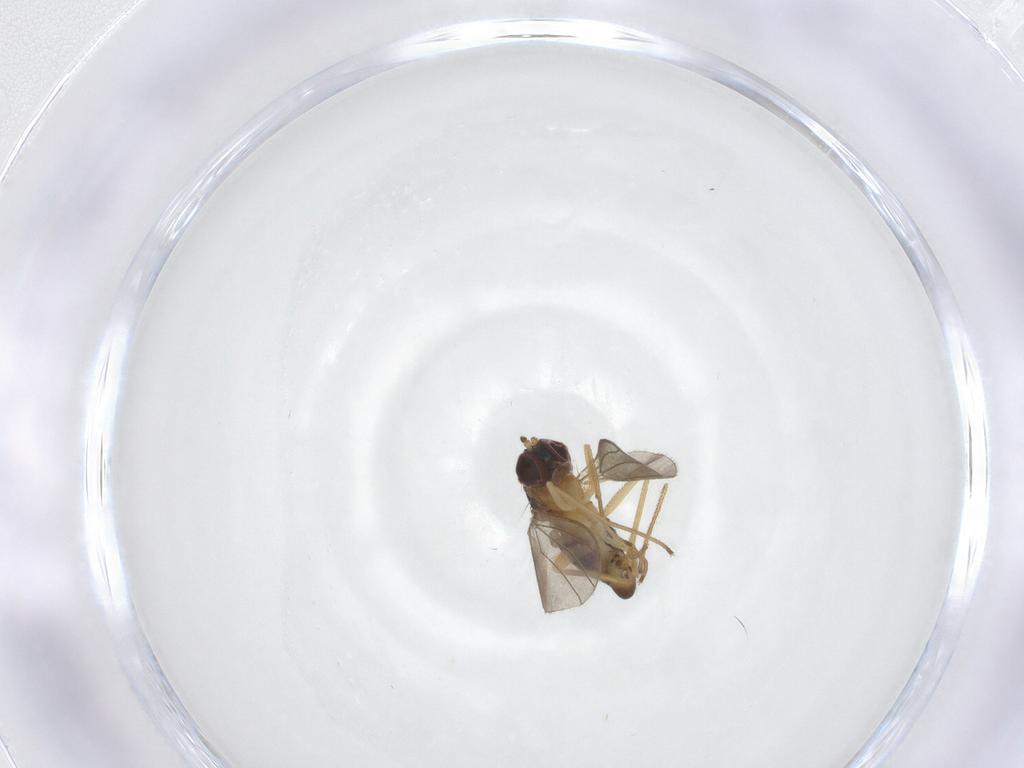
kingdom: Animalia
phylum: Arthropoda
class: Insecta
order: Diptera
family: Dolichopodidae
